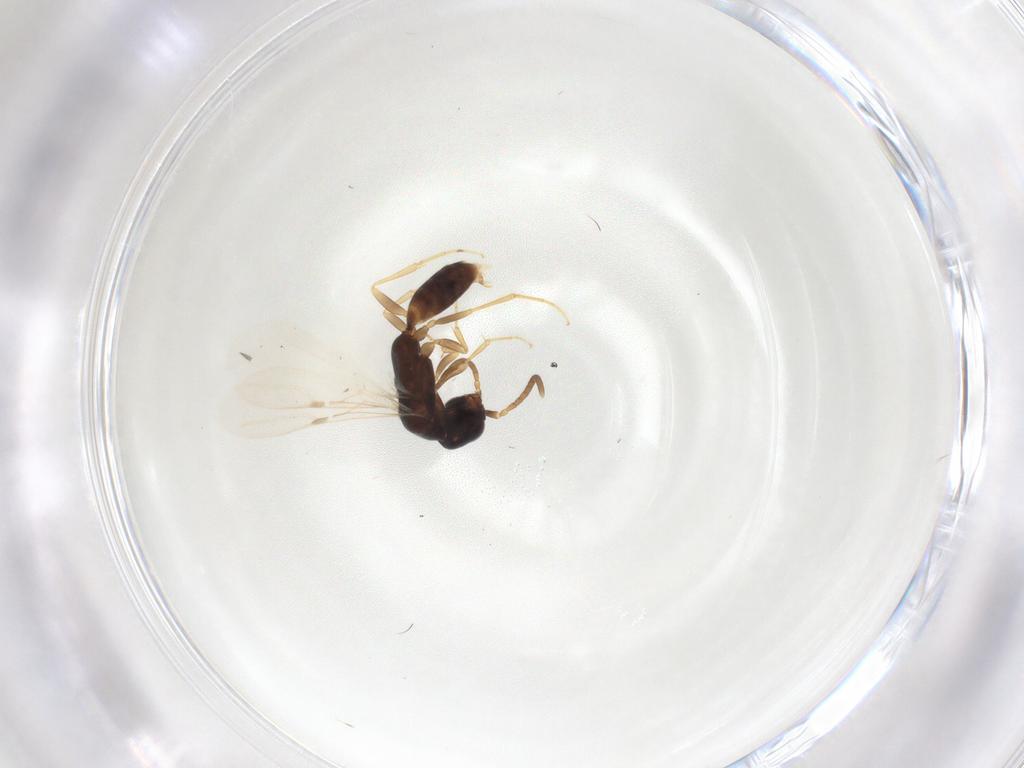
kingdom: Animalia
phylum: Arthropoda
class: Insecta
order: Hymenoptera
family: Bethylidae
